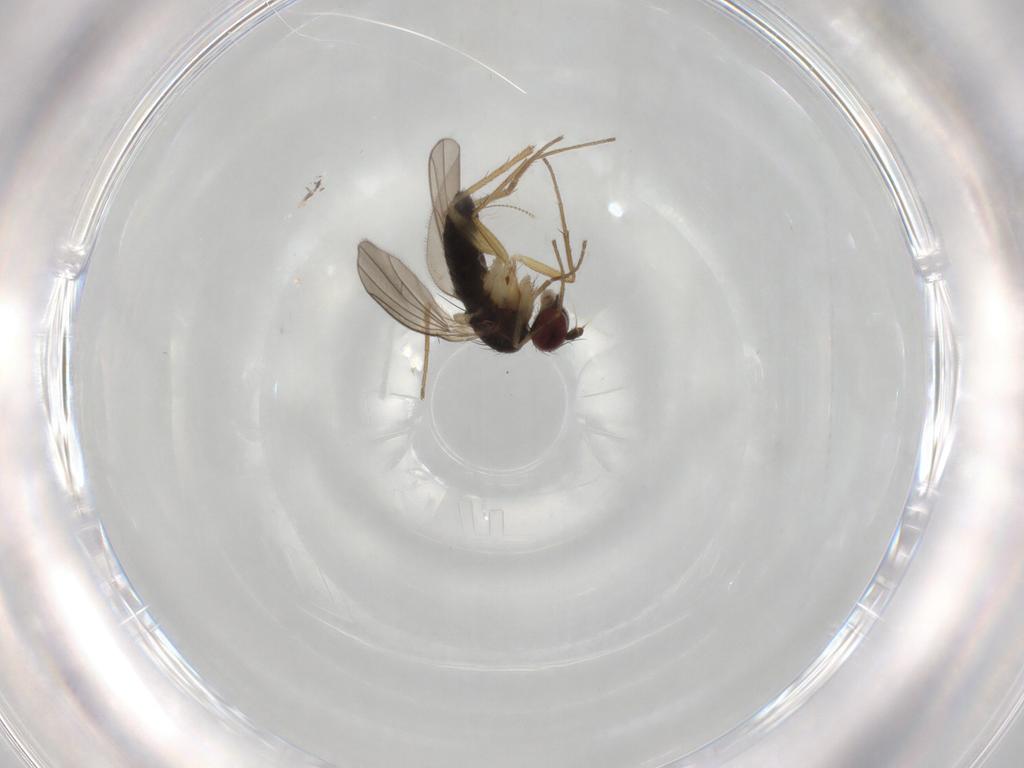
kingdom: Animalia
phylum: Arthropoda
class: Insecta
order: Diptera
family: Dolichopodidae
